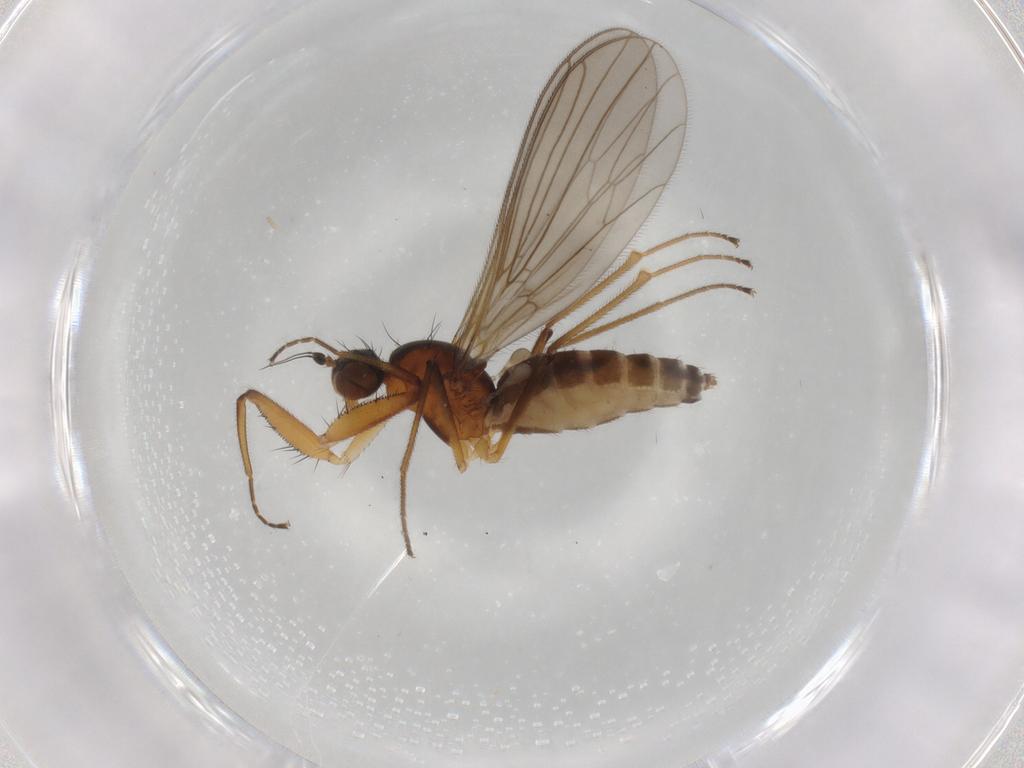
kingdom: Animalia
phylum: Arthropoda
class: Insecta
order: Diptera
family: Empididae
